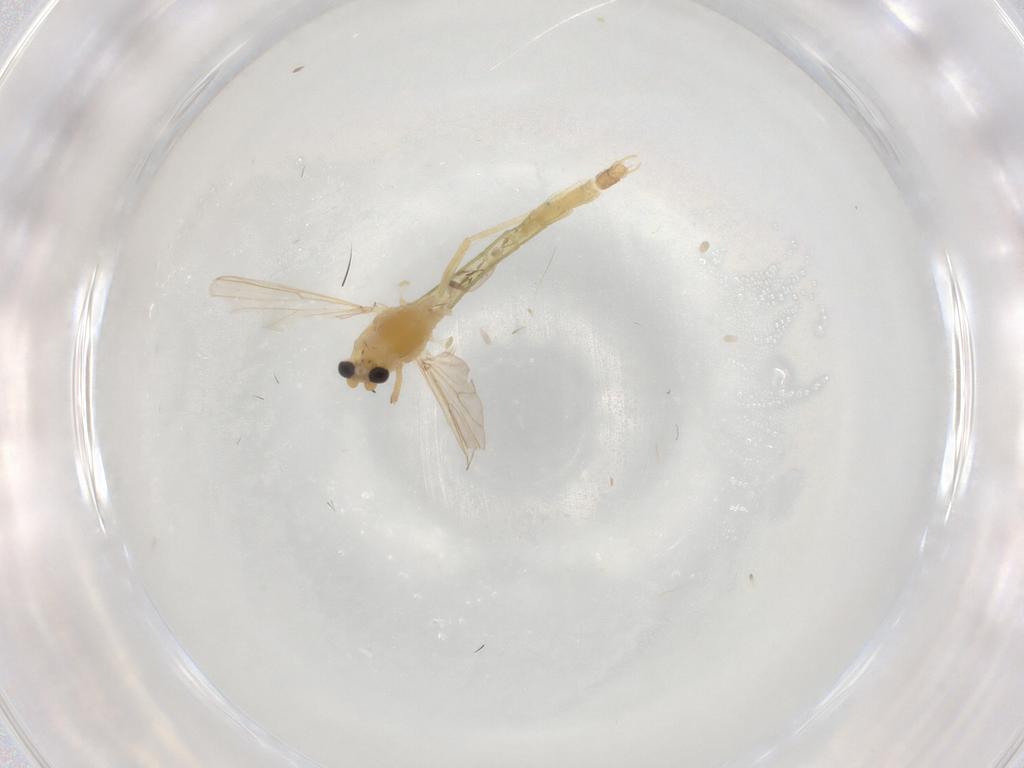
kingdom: Animalia
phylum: Arthropoda
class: Insecta
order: Diptera
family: Chironomidae
